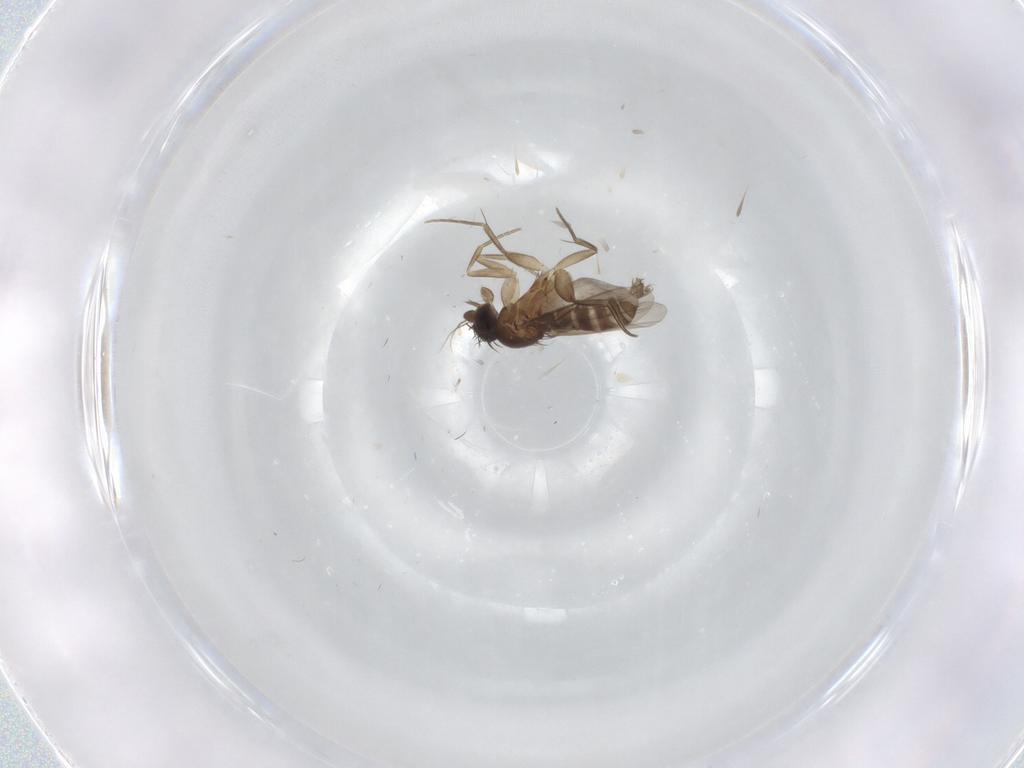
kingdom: Animalia
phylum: Arthropoda
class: Insecta
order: Diptera
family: Phoridae
